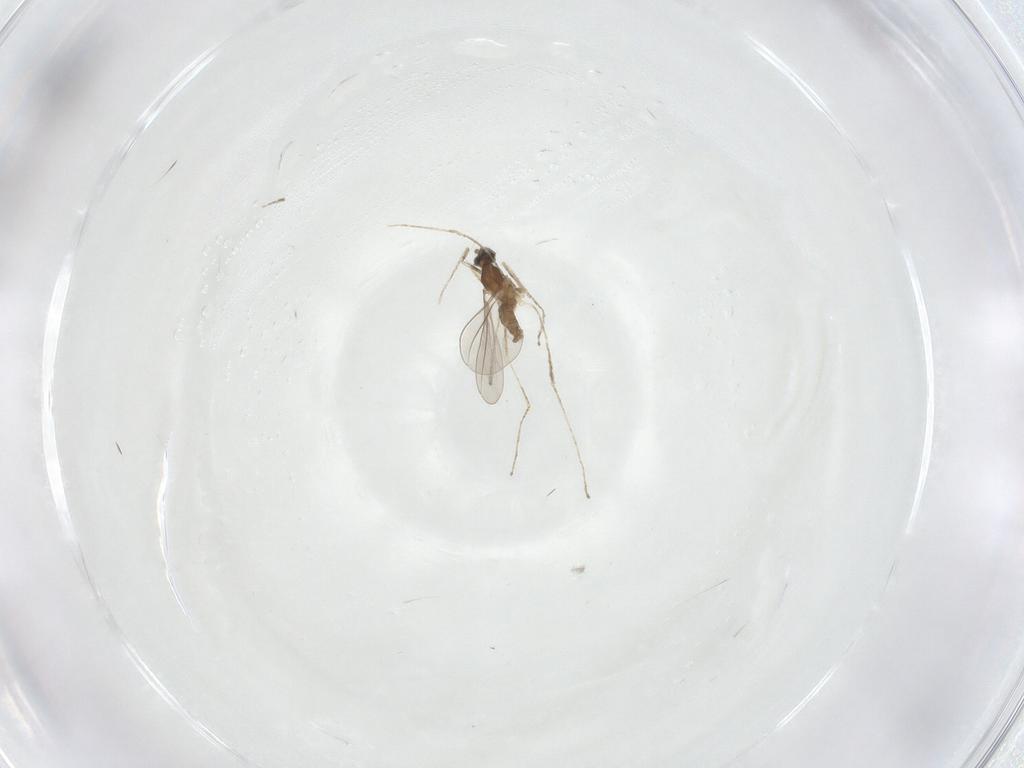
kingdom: Animalia
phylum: Arthropoda
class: Insecta
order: Diptera
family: Cecidomyiidae
